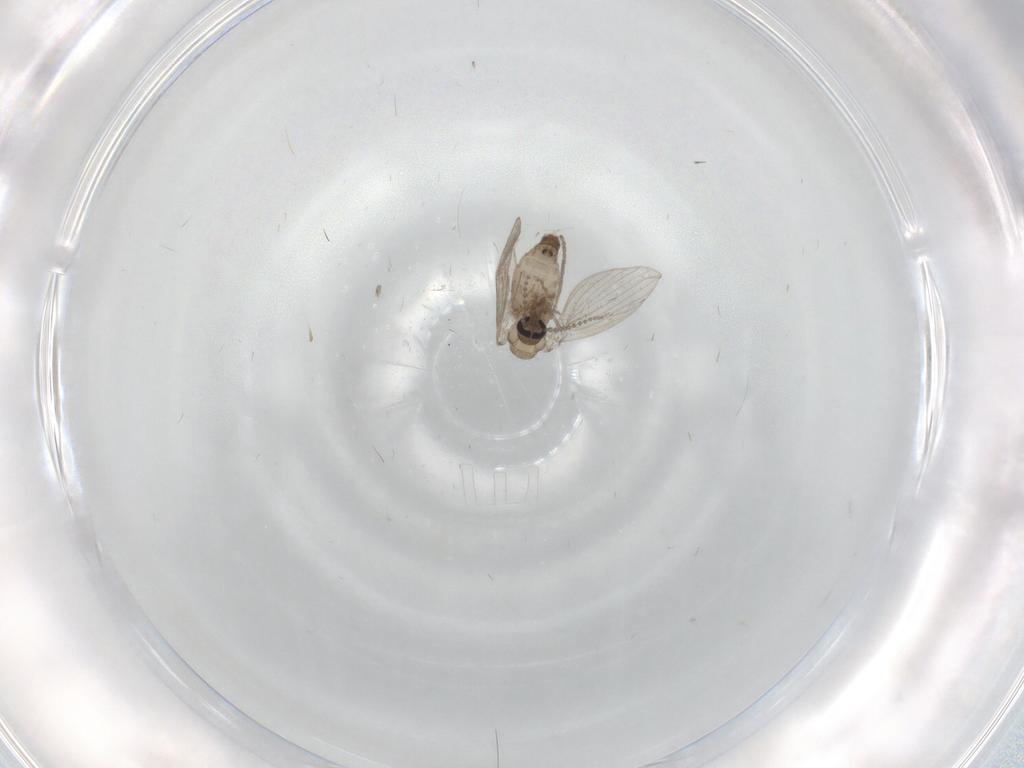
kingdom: Animalia
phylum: Arthropoda
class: Insecta
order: Diptera
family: Psychodidae
